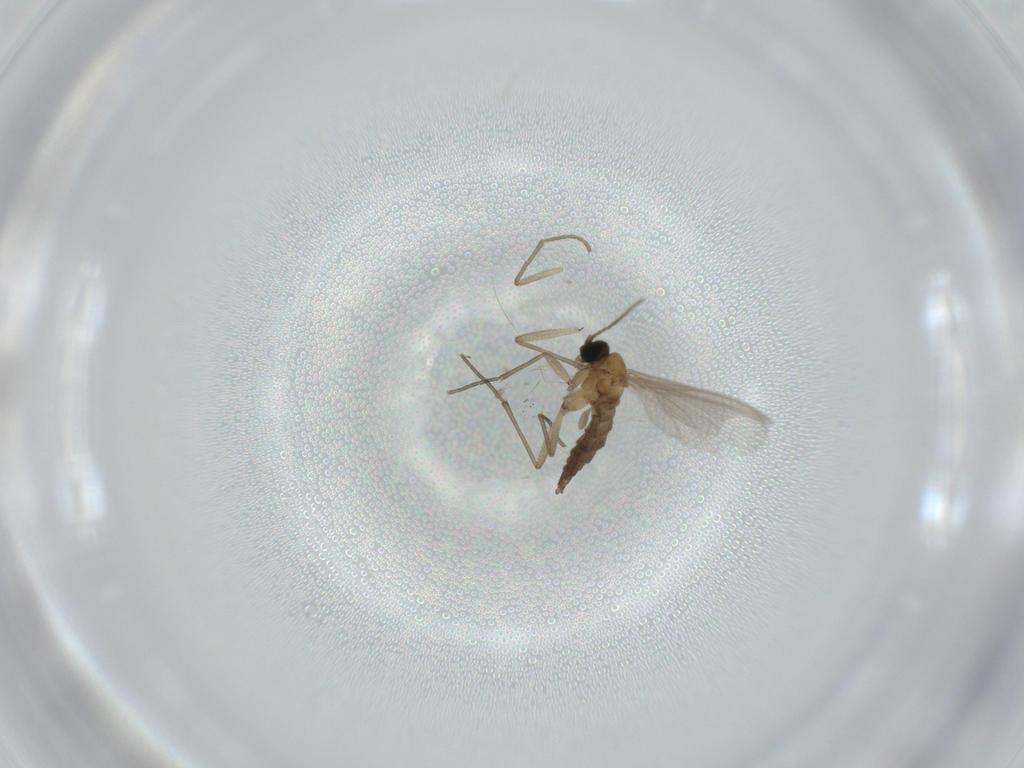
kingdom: Animalia
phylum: Arthropoda
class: Insecta
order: Diptera
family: Sciaridae
